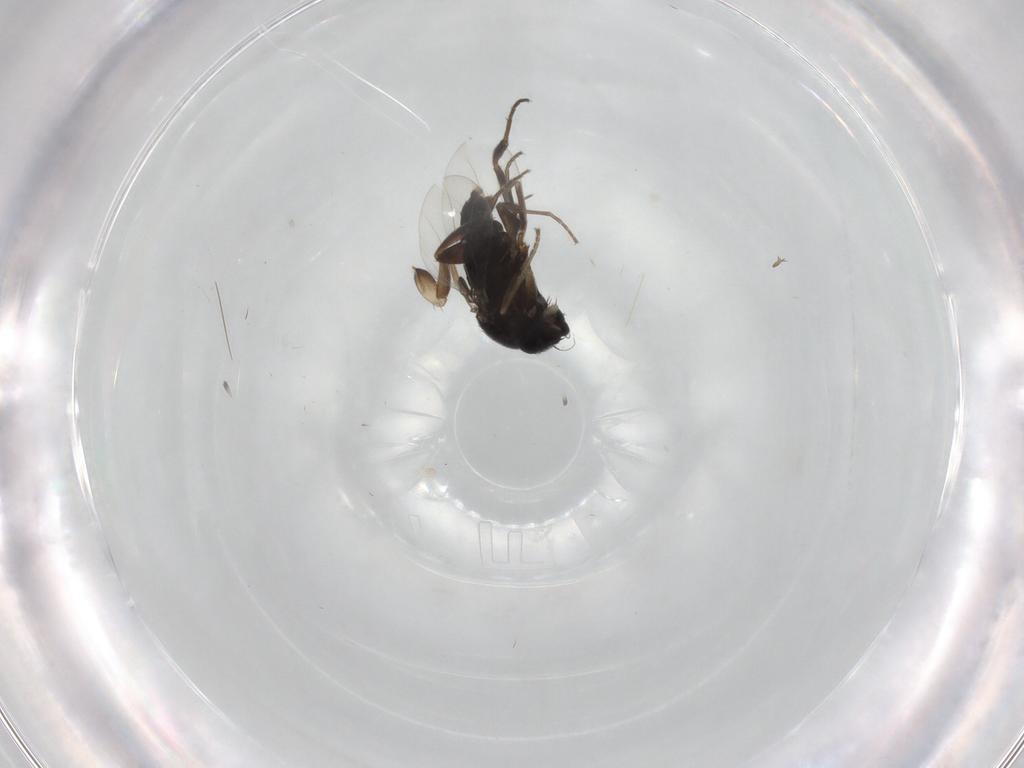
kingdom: Animalia
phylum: Arthropoda
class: Insecta
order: Diptera
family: Phoridae
